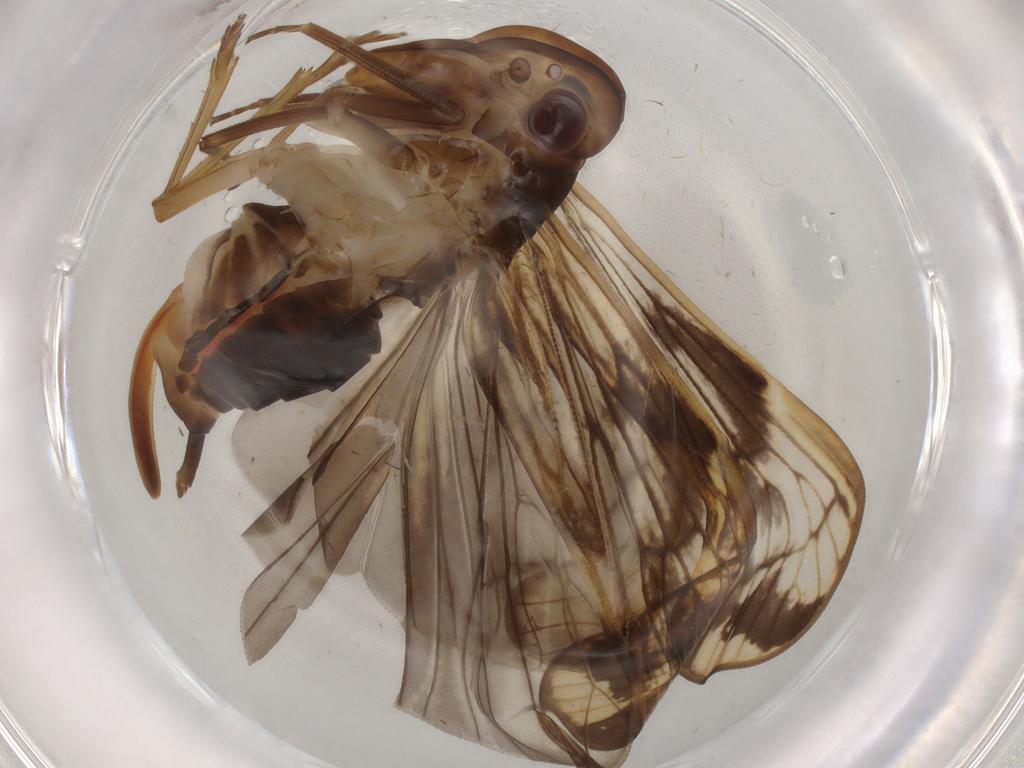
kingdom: Animalia
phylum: Arthropoda
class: Insecta
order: Hemiptera
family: Cixiidae
